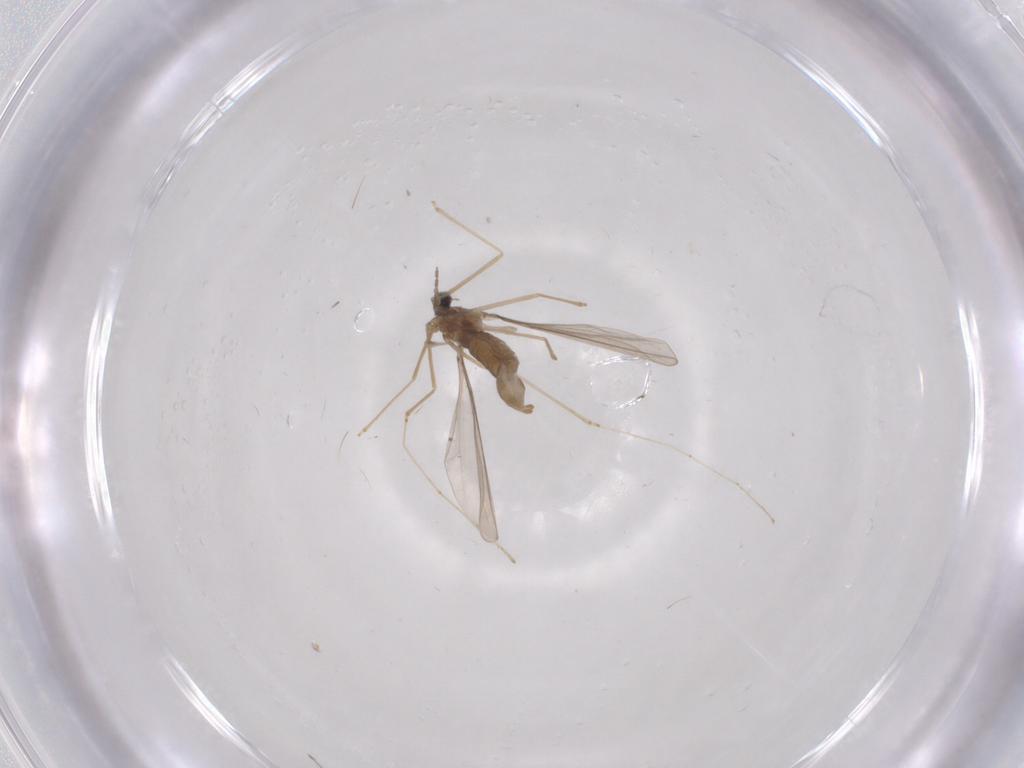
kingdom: Animalia
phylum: Arthropoda
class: Insecta
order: Diptera
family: Cecidomyiidae
